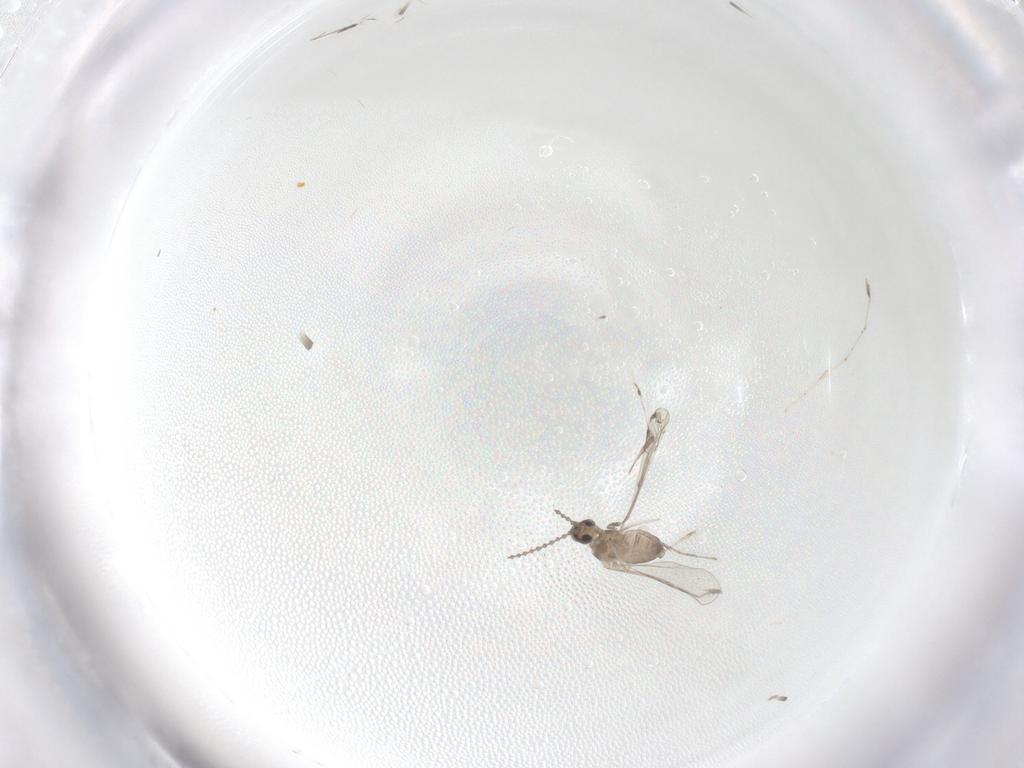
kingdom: Animalia
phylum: Arthropoda
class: Insecta
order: Diptera
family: Cecidomyiidae
